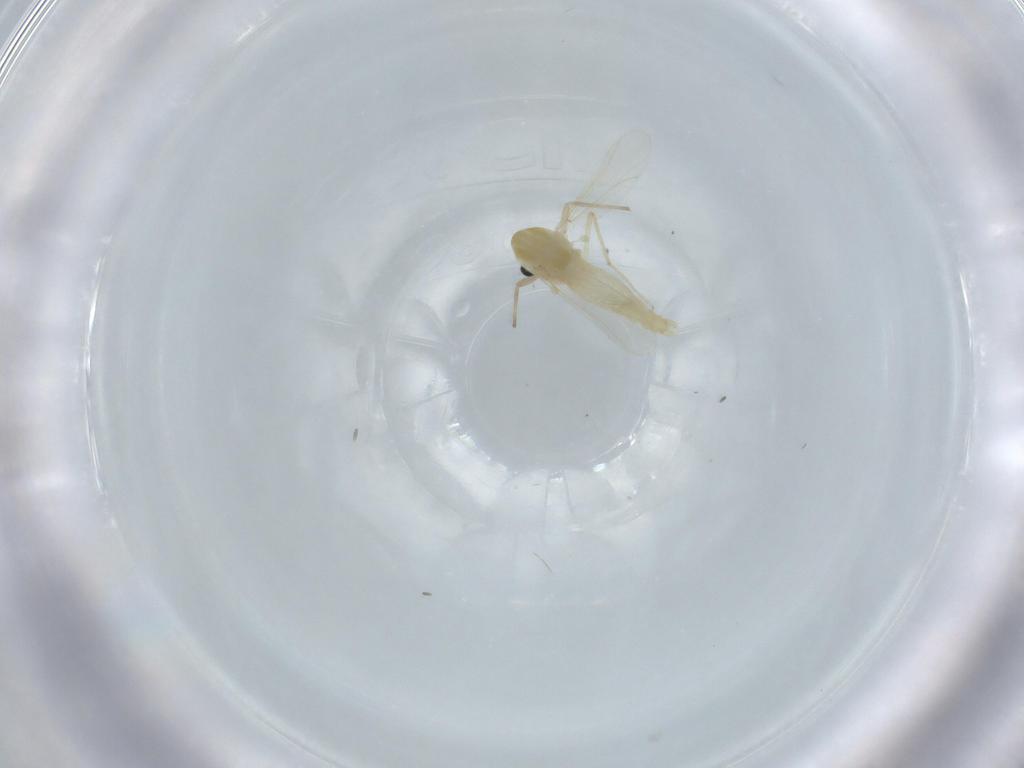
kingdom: Animalia
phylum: Arthropoda
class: Insecta
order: Diptera
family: Chironomidae
